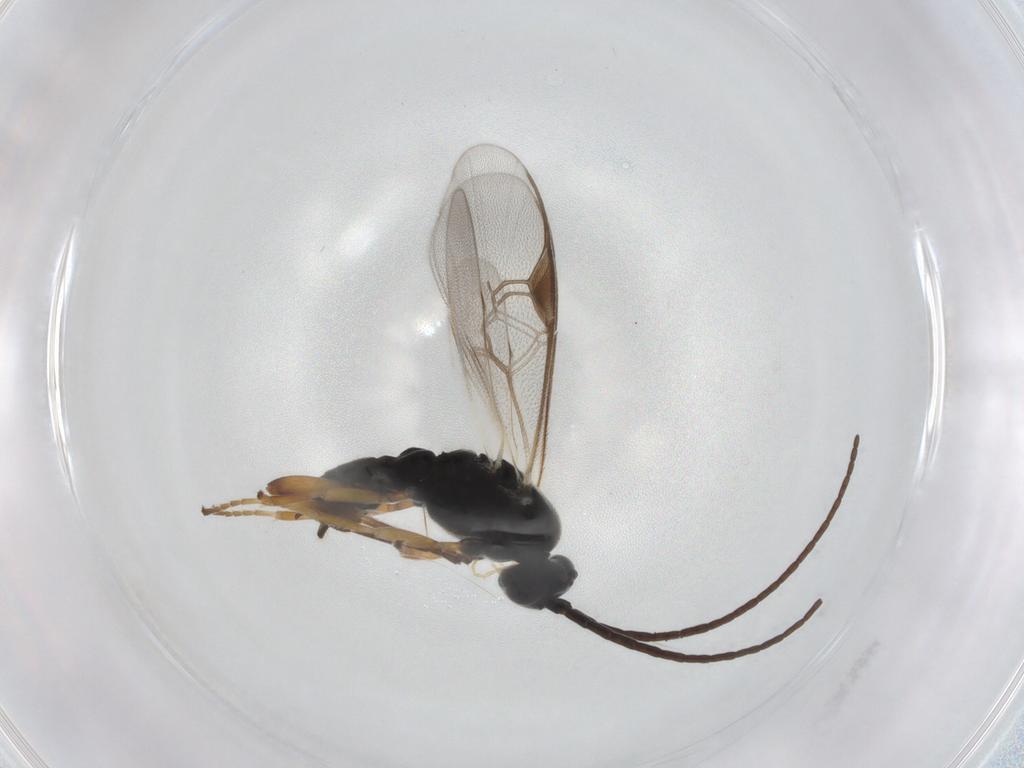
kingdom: Animalia
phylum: Arthropoda
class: Insecta
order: Hymenoptera
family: Braconidae
